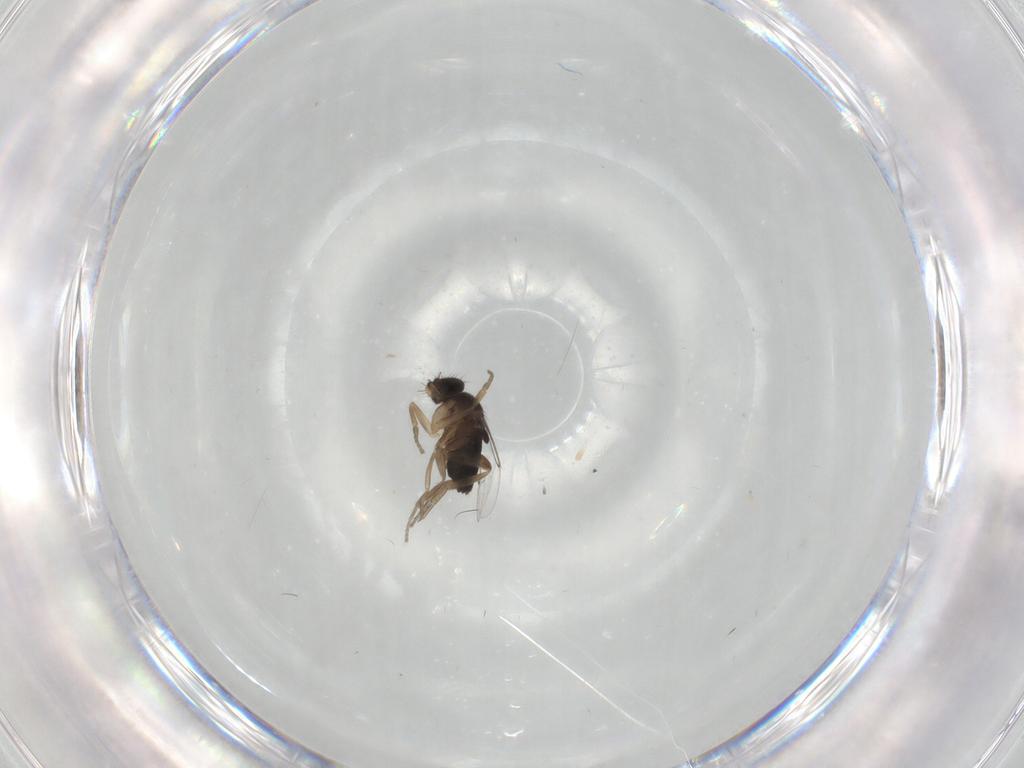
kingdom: Animalia
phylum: Arthropoda
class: Insecta
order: Diptera
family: Phoridae
